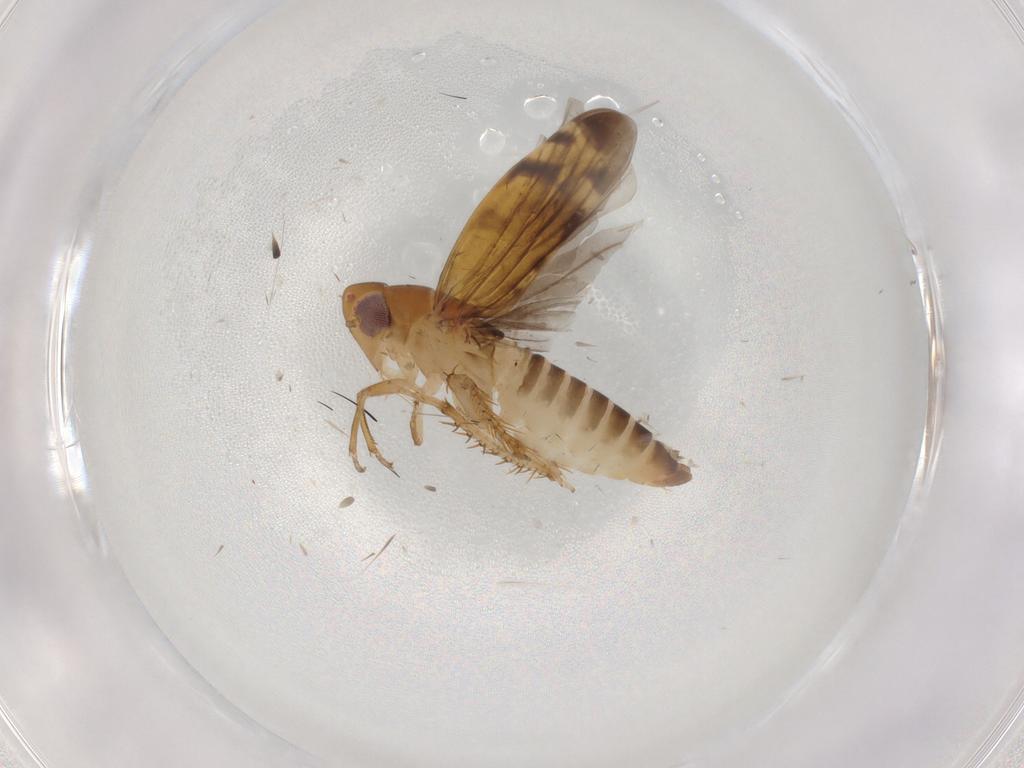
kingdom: Animalia
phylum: Arthropoda
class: Insecta
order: Hemiptera
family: Cicadellidae
